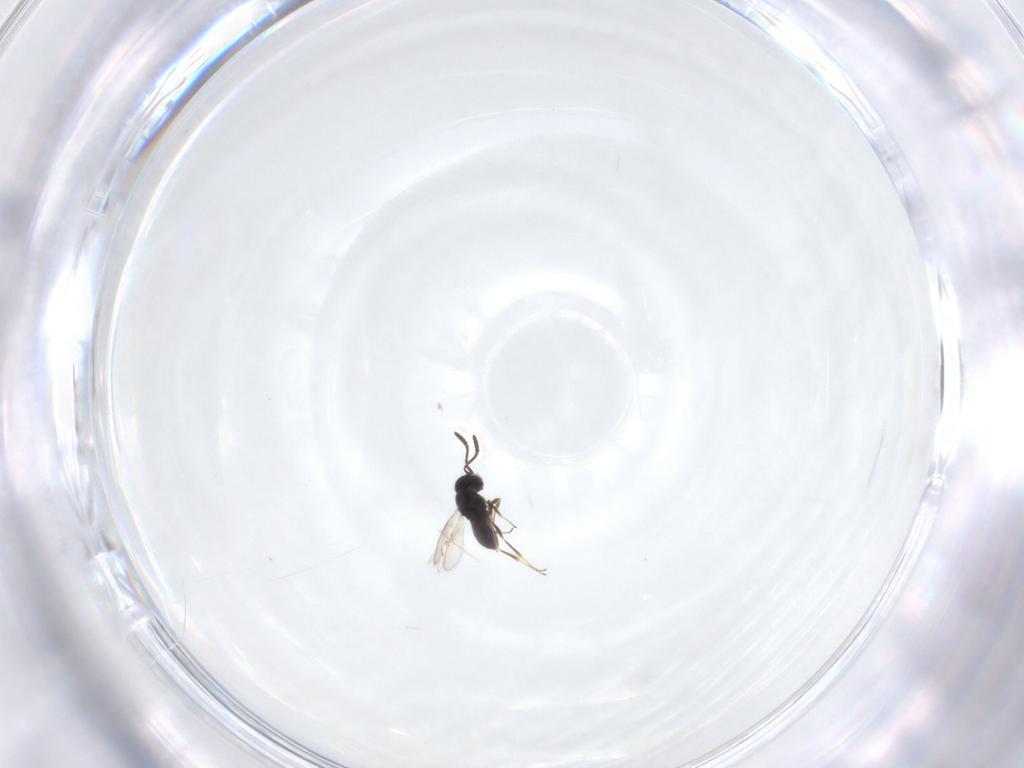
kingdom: Animalia
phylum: Arthropoda
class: Insecta
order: Hymenoptera
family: Scelionidae
